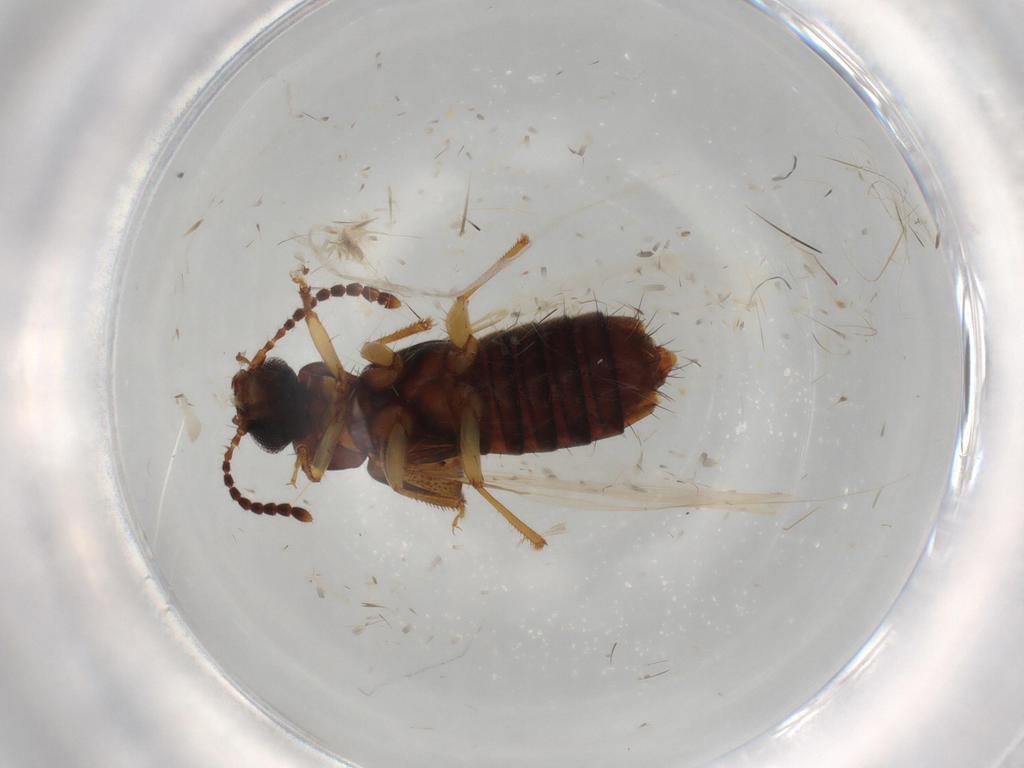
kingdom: Animalia
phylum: Arthropoda
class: Insecta
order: Coleoptera
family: Staphylinidae
